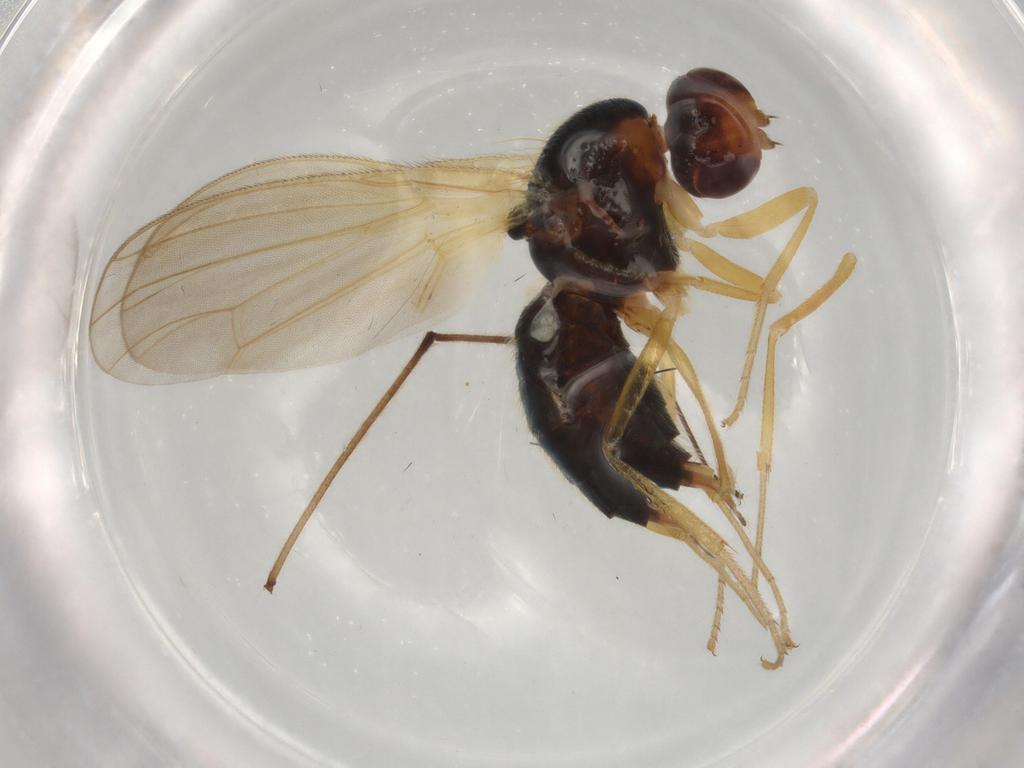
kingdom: Animalia
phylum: Arthropoda
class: Insecta
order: Diptera
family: Chironomidae
